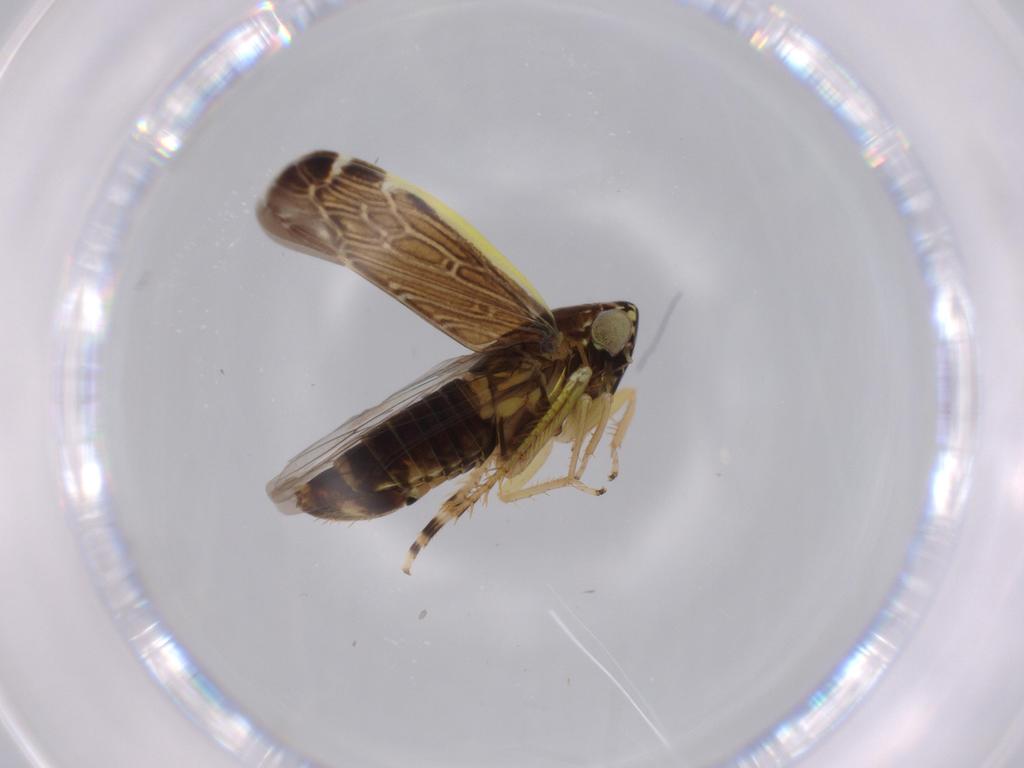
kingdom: Animalia
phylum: Arthropoda
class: Insecta
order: Hemiptera
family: Cicadellidae
